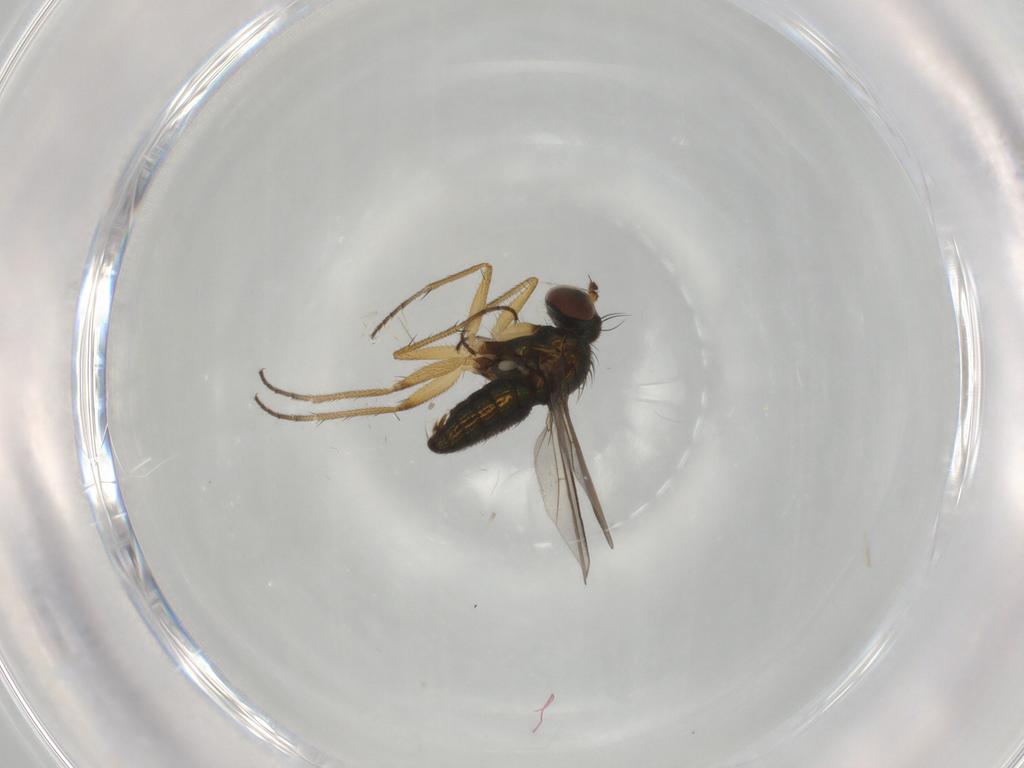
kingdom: Animalia
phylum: Arthropoda
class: Insecta
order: Diptera
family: Dolichopodidae
